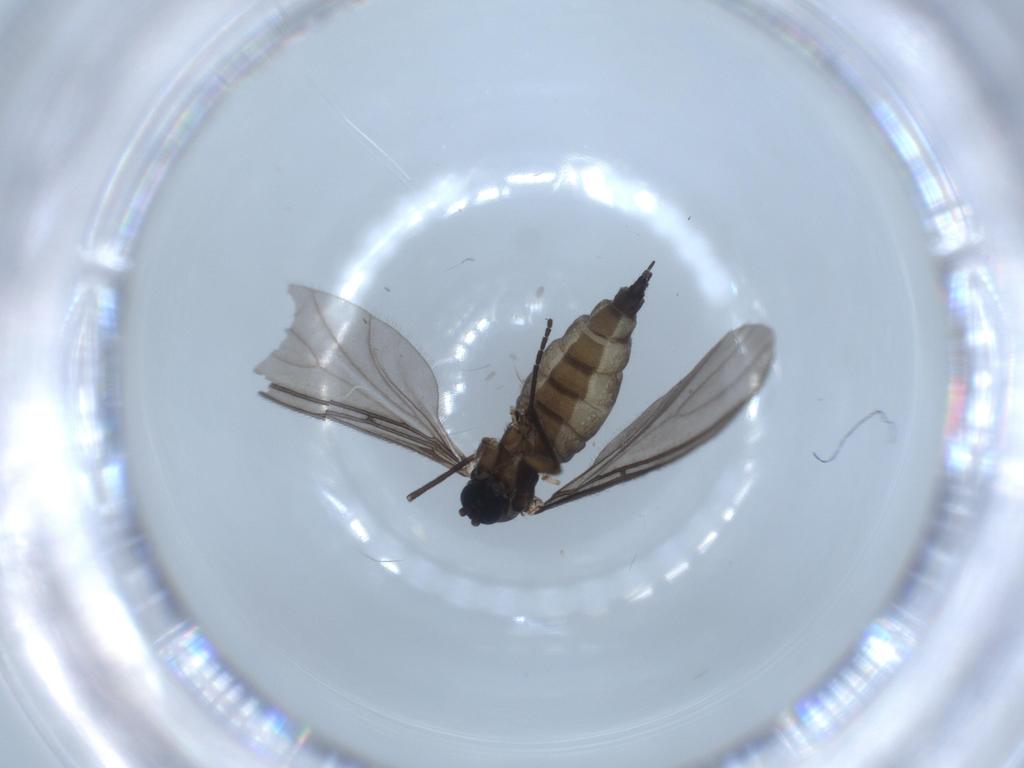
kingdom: Animalia
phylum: Arthropoda
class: Insecta
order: Diptera
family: Sciaridae
